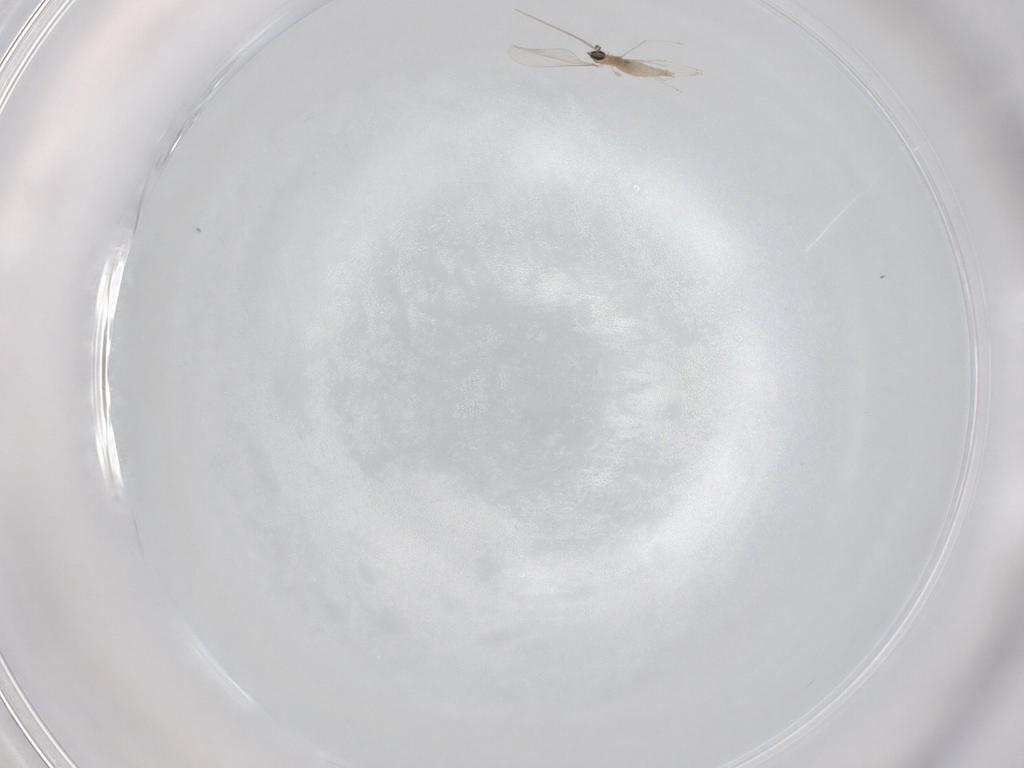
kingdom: Animalia
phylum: Arthropoda
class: Insecta
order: Diptera
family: Cecidomyiidae
